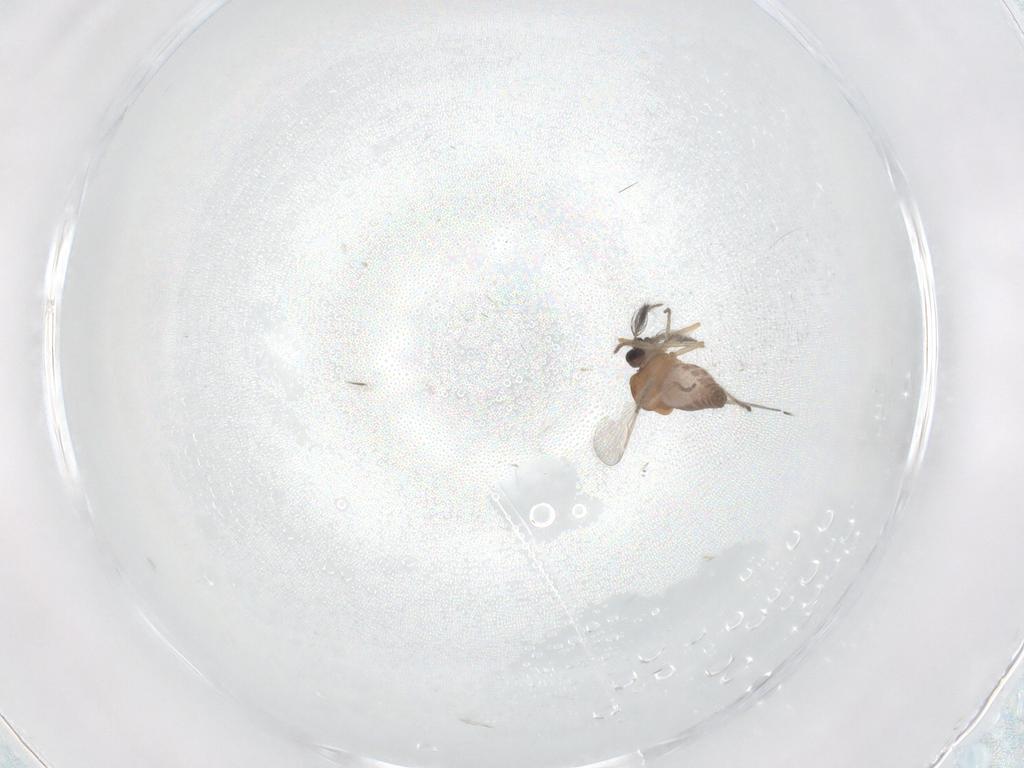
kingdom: Animalia
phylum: Arthropoda
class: Insecta
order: Diptera
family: Ceratopogonidae
